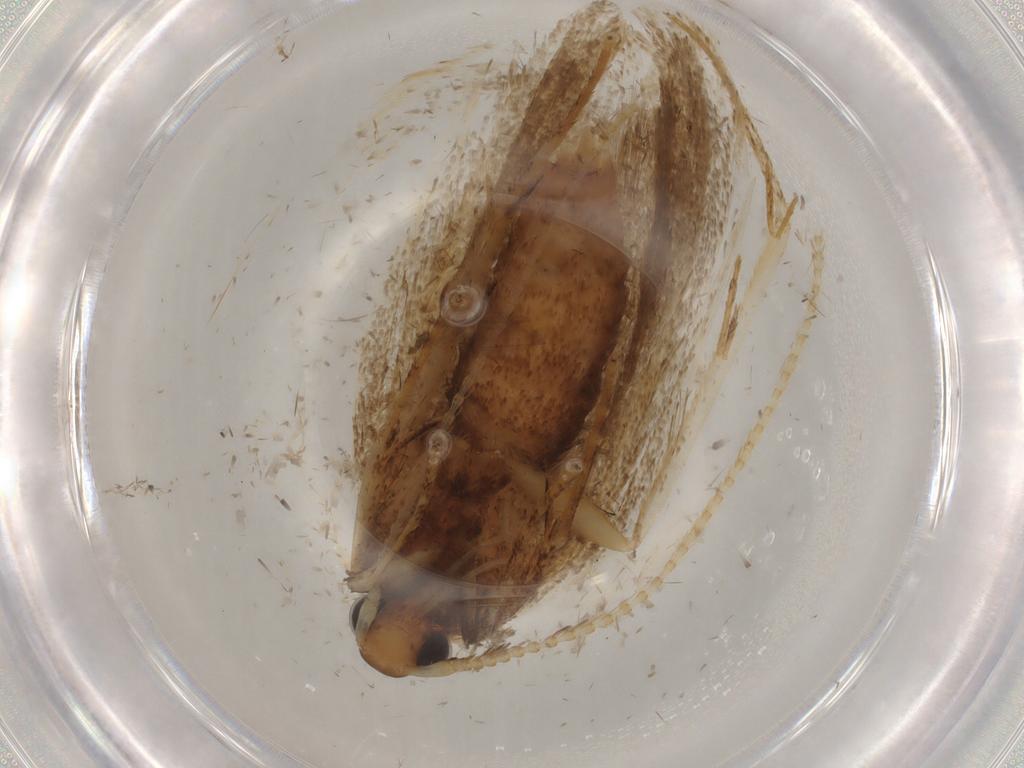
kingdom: Animalia
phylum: Arthropoda
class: Insecta
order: Lepidoptera
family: Lecithoceridae
